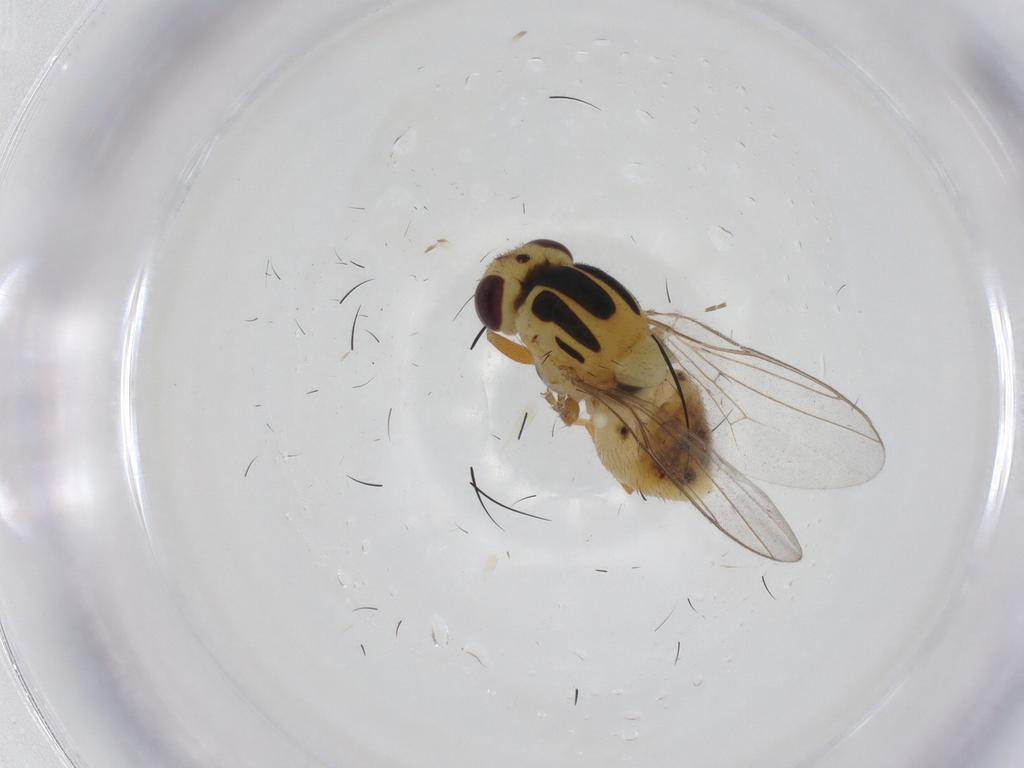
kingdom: Animalia
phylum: Arthropoda
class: Insecta
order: Diptera
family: Chloropidae
